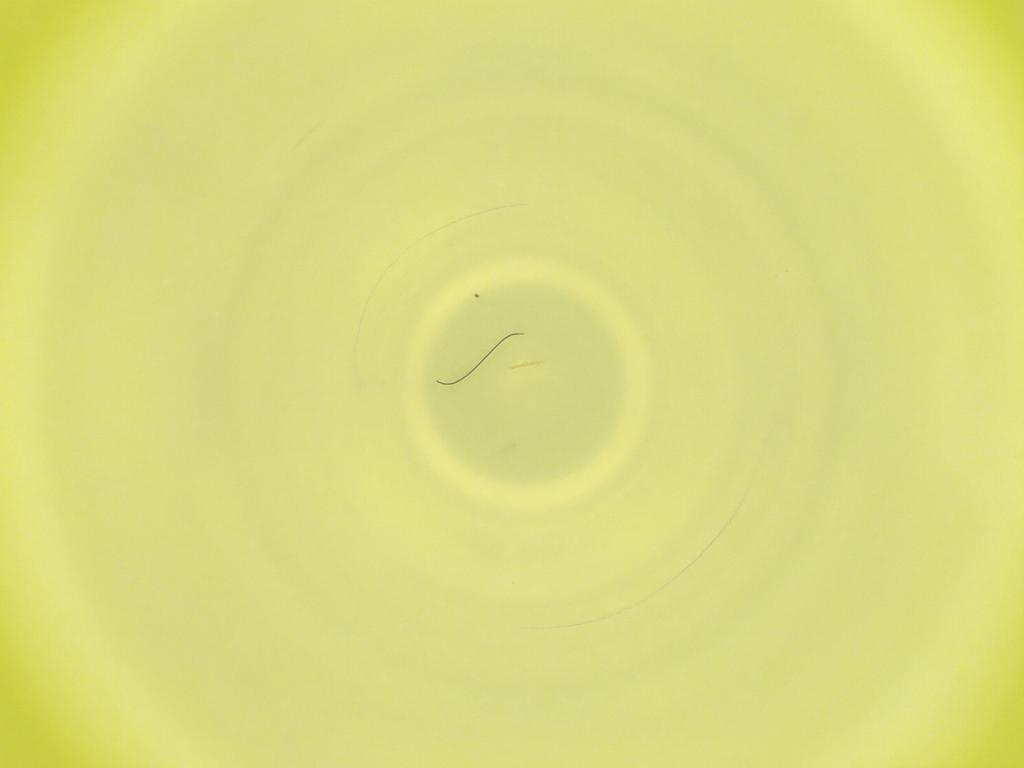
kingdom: Animalia
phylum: Arthropoda
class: Insecta
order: Diptera
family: Cecidomyiidae
